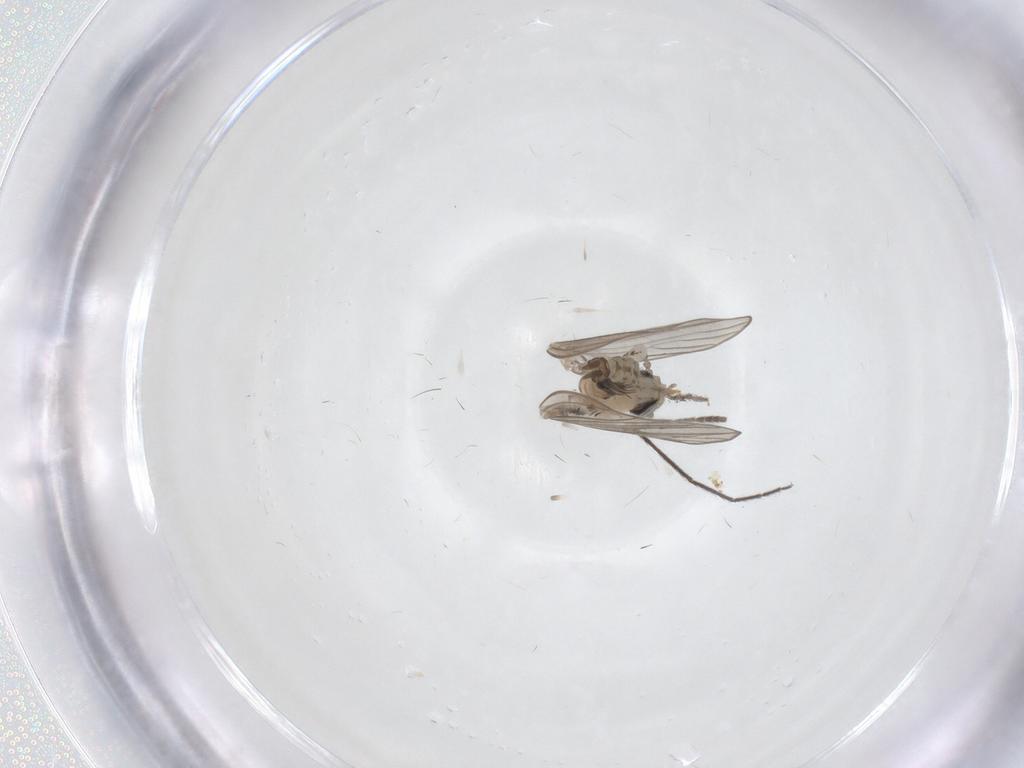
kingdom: Animalia
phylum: Arthropoda
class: Insecta
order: Diptera
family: Psychodidae
